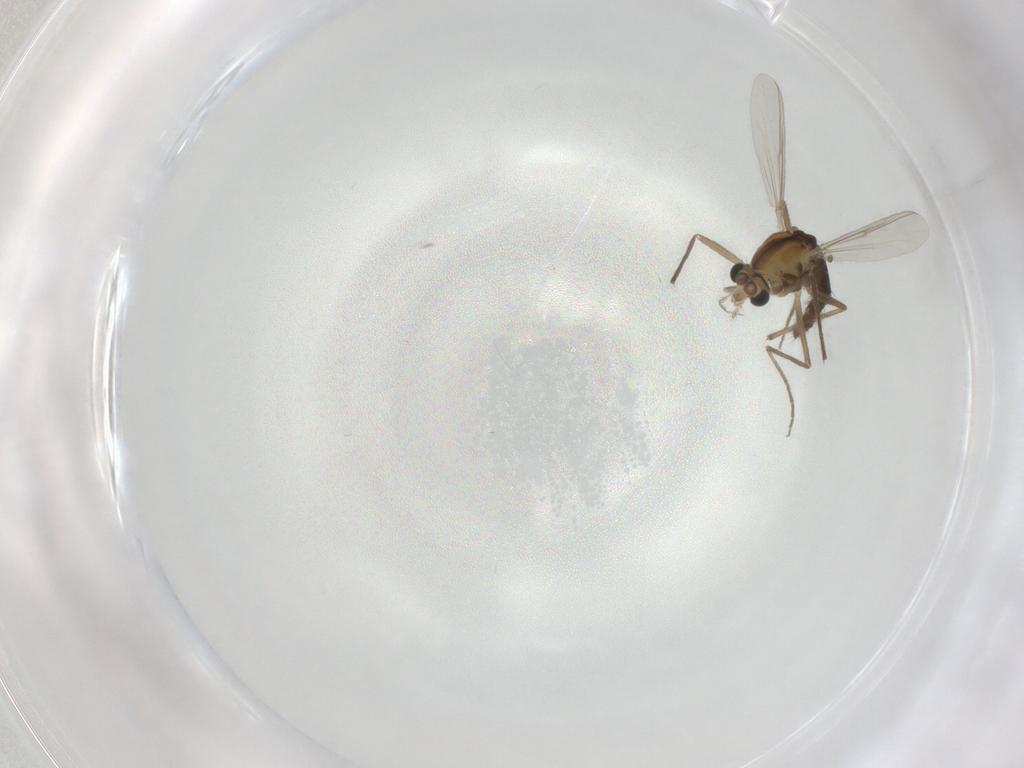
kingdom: Animalia
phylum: Arthropoda
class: Insecta
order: Diptera
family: Chironomidae
